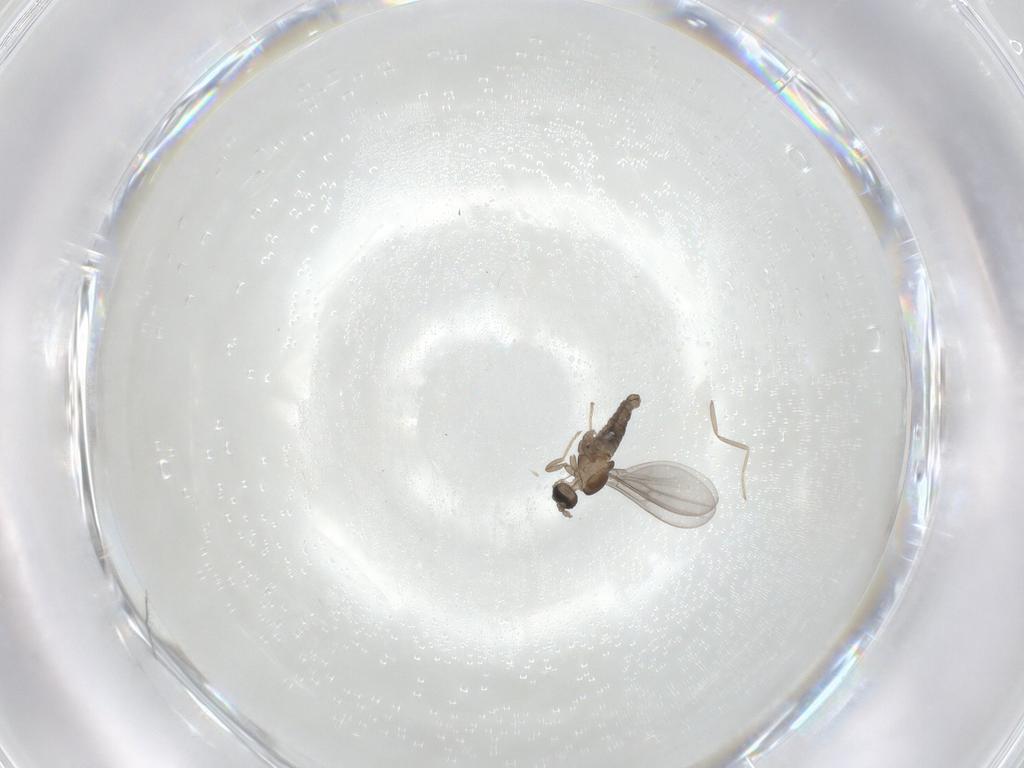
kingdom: Animalia
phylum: Arthropoda
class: Insecta
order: Diptera
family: Cecidomyiidae
